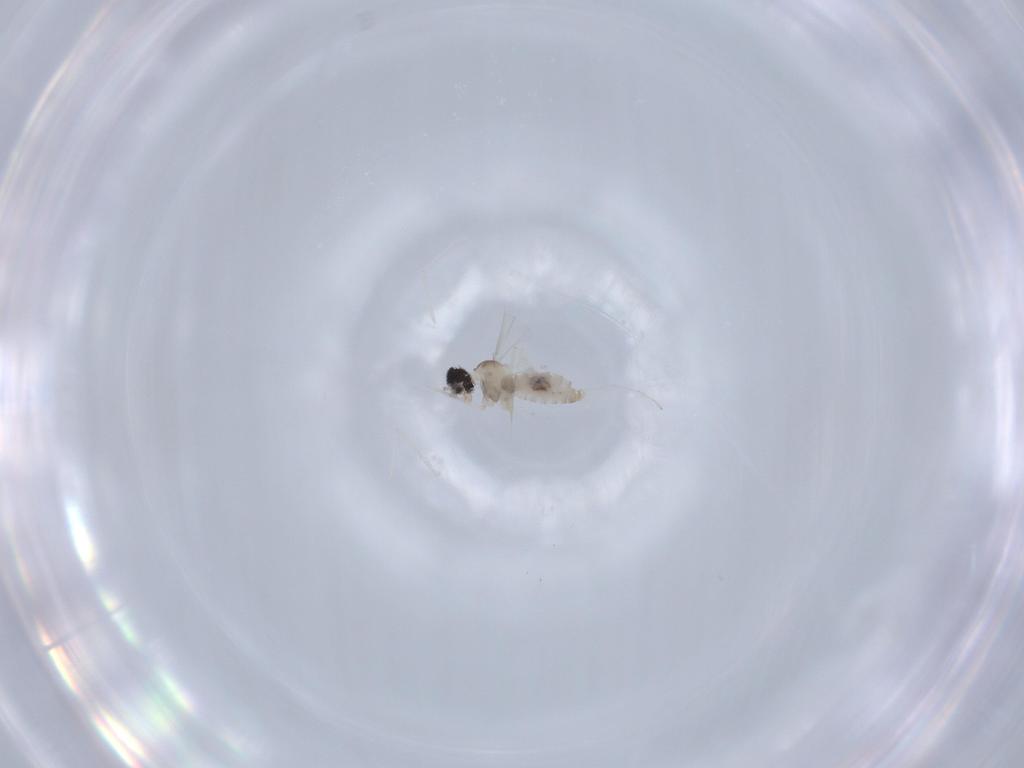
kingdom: Animalia
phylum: Arthropoda
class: Insecta
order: Diptera
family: Cecidomyiidae
